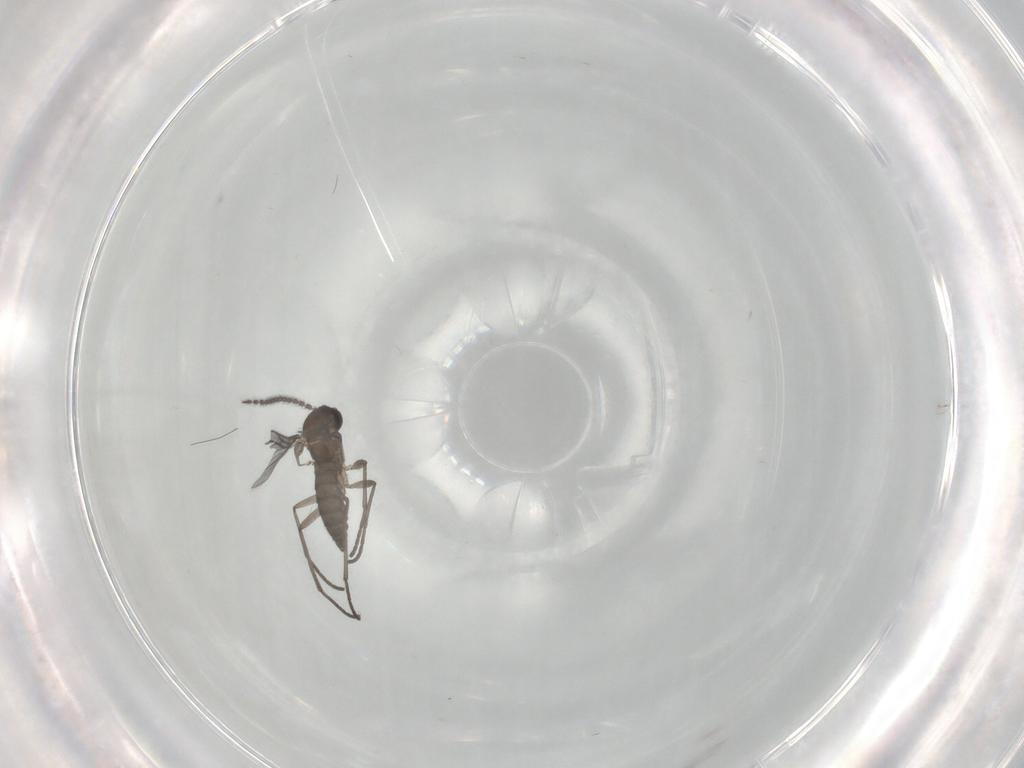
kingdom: Animalia
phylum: Arthropoda
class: Insecta
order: Diptera
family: Sciaridae
